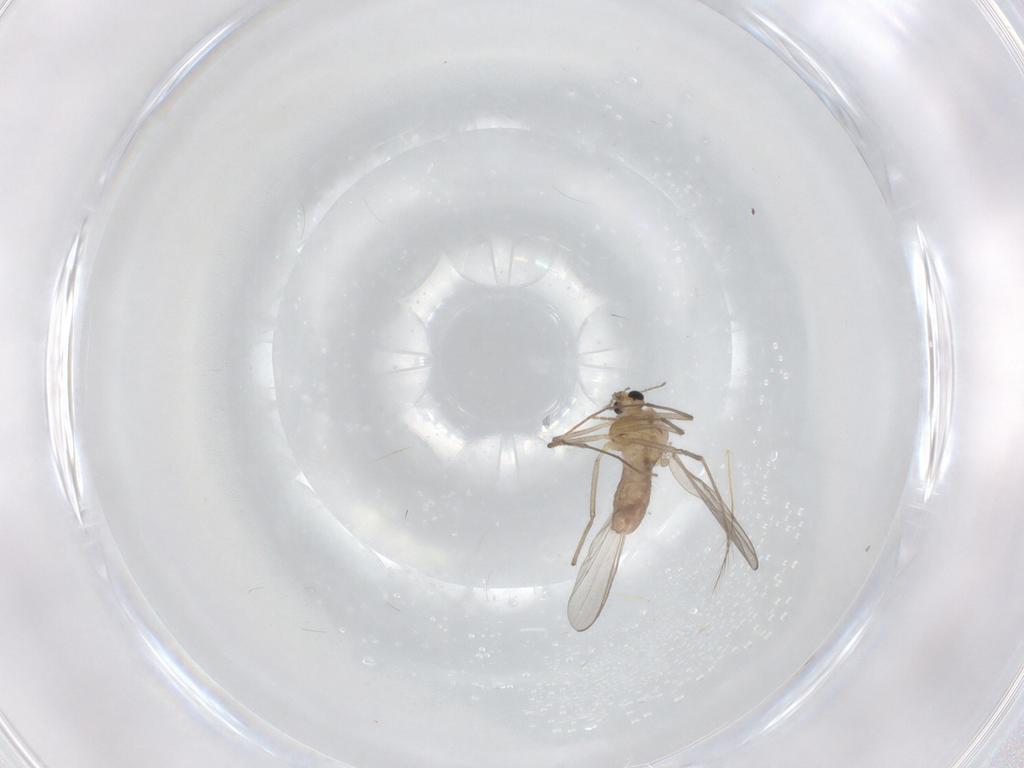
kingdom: Animalia
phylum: Arthropoda
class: Insecta
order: Diptera
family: Chironomidae
